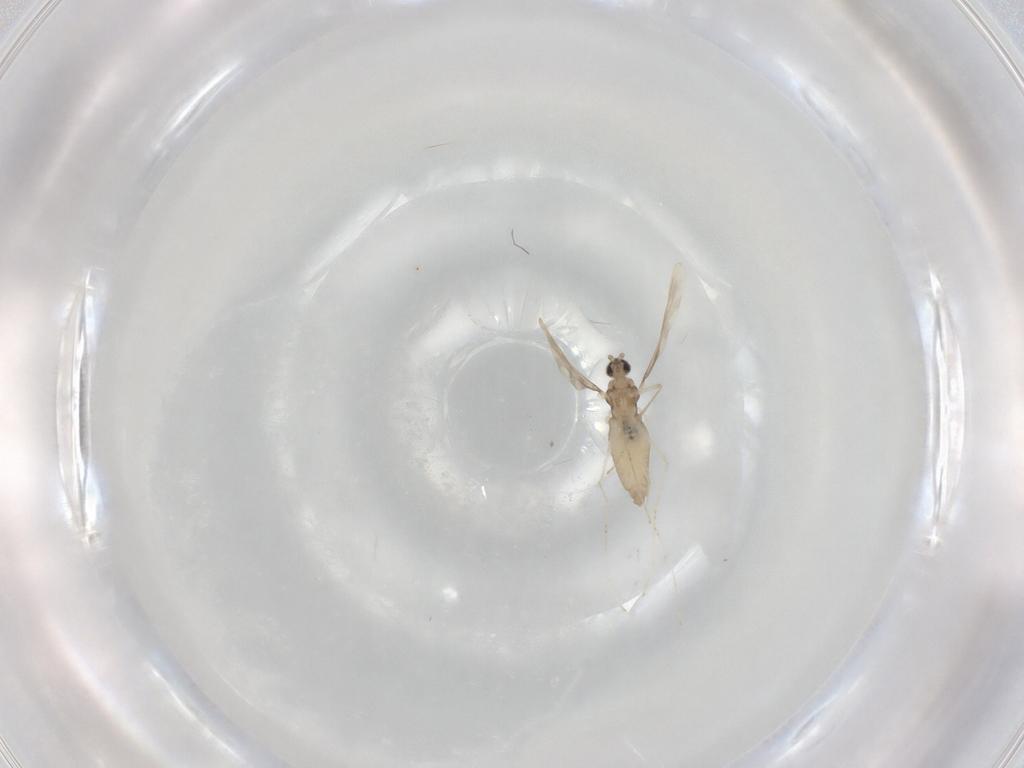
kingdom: Animalia
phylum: Arthropoda
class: Insecta
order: Diptera
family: Cecidomyiidae
